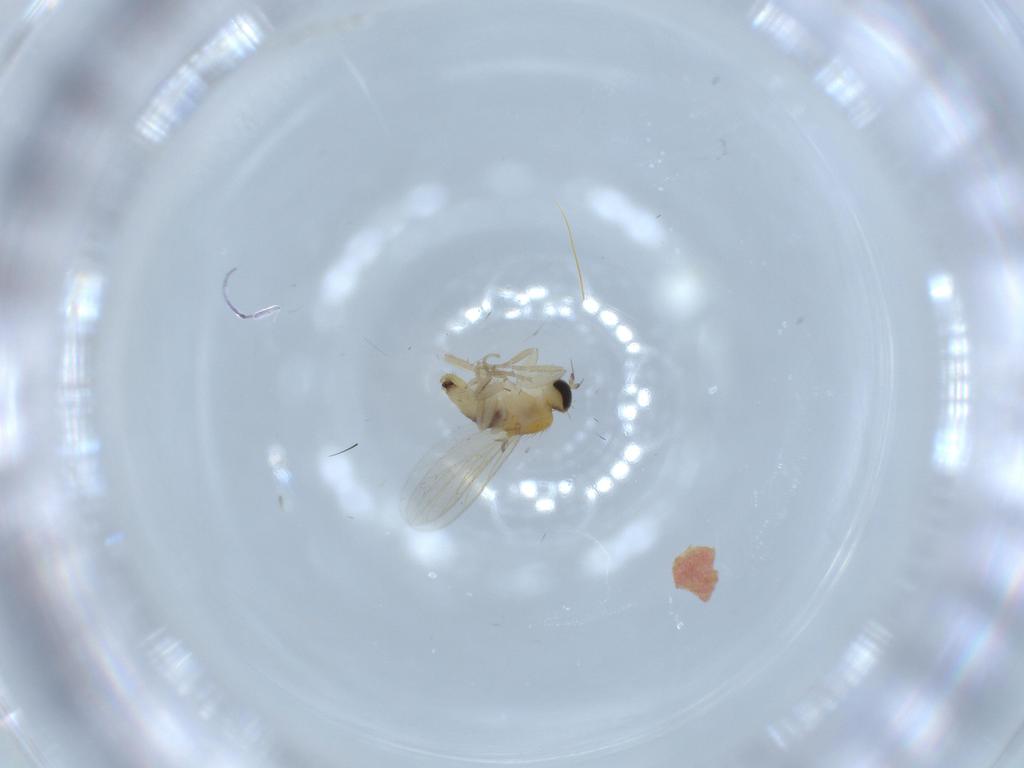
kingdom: Animalia
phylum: Arthropoda
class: Insecta
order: Diptera
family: Hybotidae
